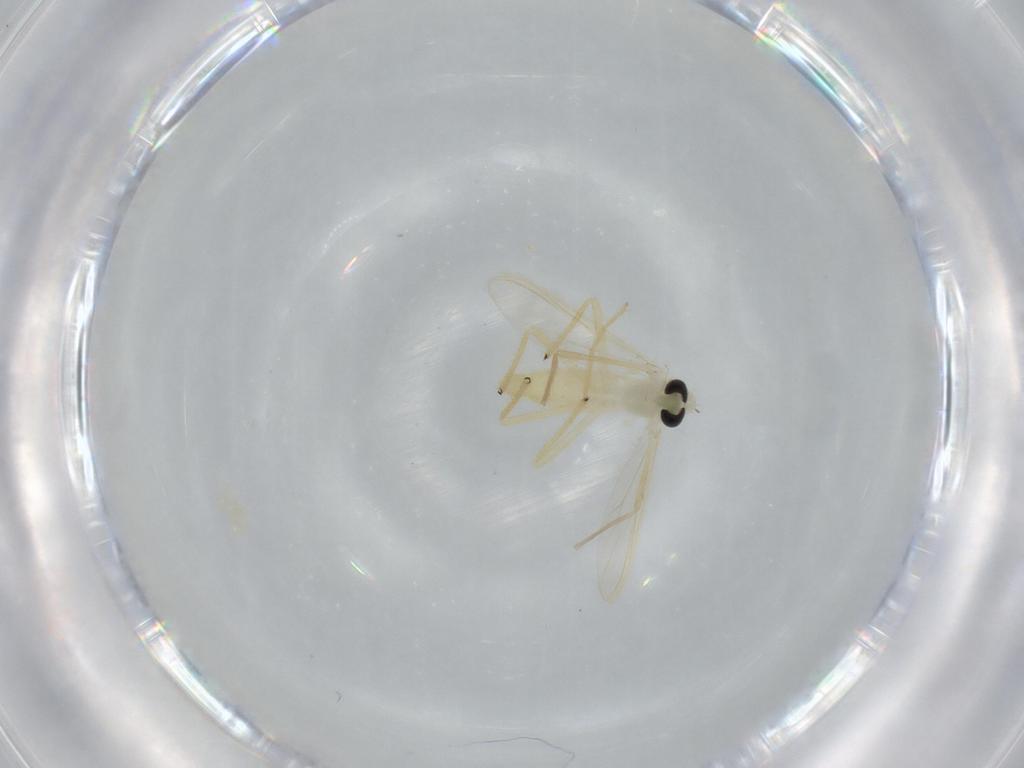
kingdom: Animalia
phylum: Arthropoda
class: Insecta
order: Diptera
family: Chironomidae
